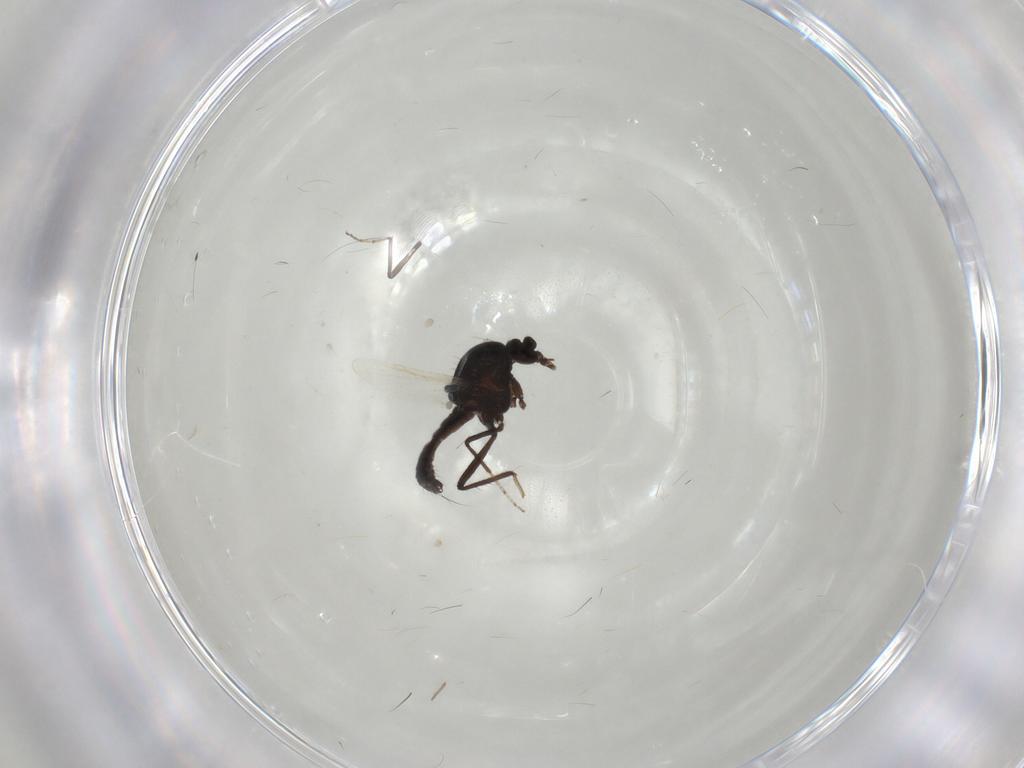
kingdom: Animalia
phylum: Arthropoda
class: Insecta
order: Diptera
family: Ceratopogonidae
